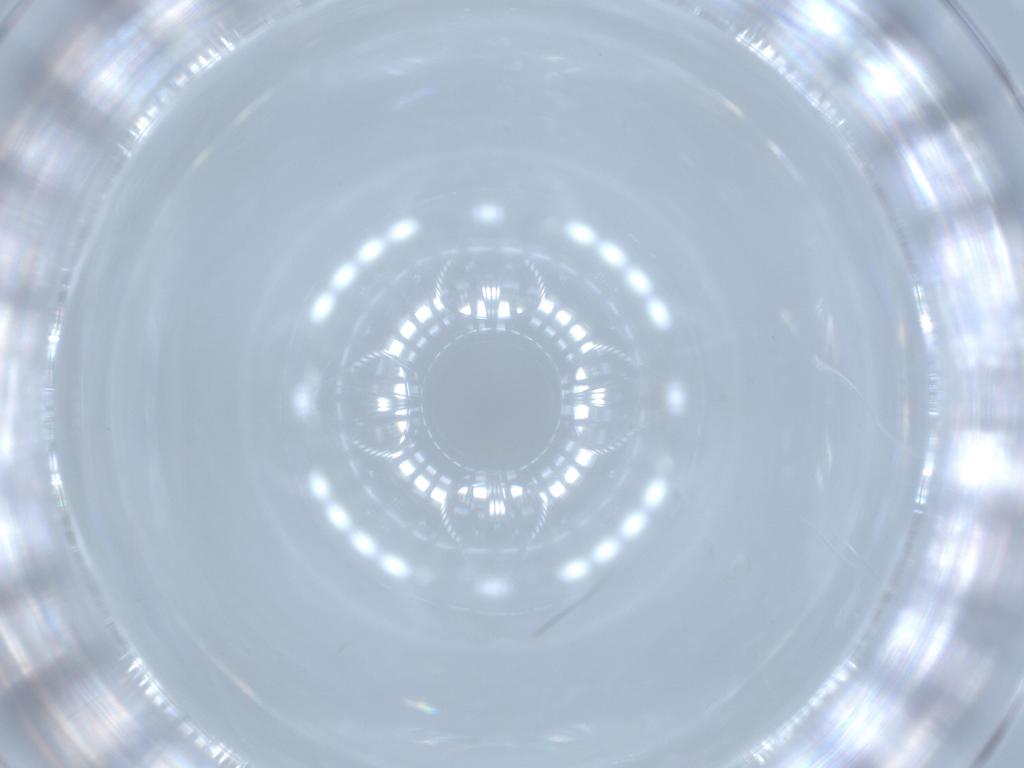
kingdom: Animalia
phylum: Arthropoda
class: Insecta
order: Diptera
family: Cecidomyiidae
